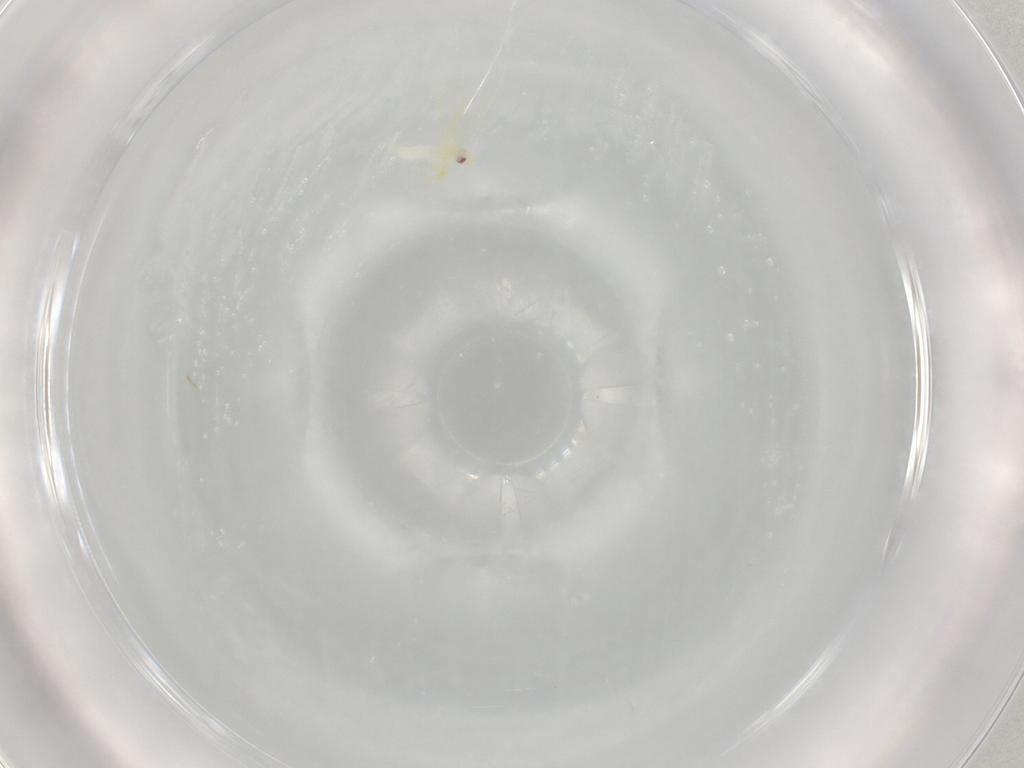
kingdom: Animalia
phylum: Arthropoda
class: Insecta
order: Hemiptera
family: Aleyrodidae
